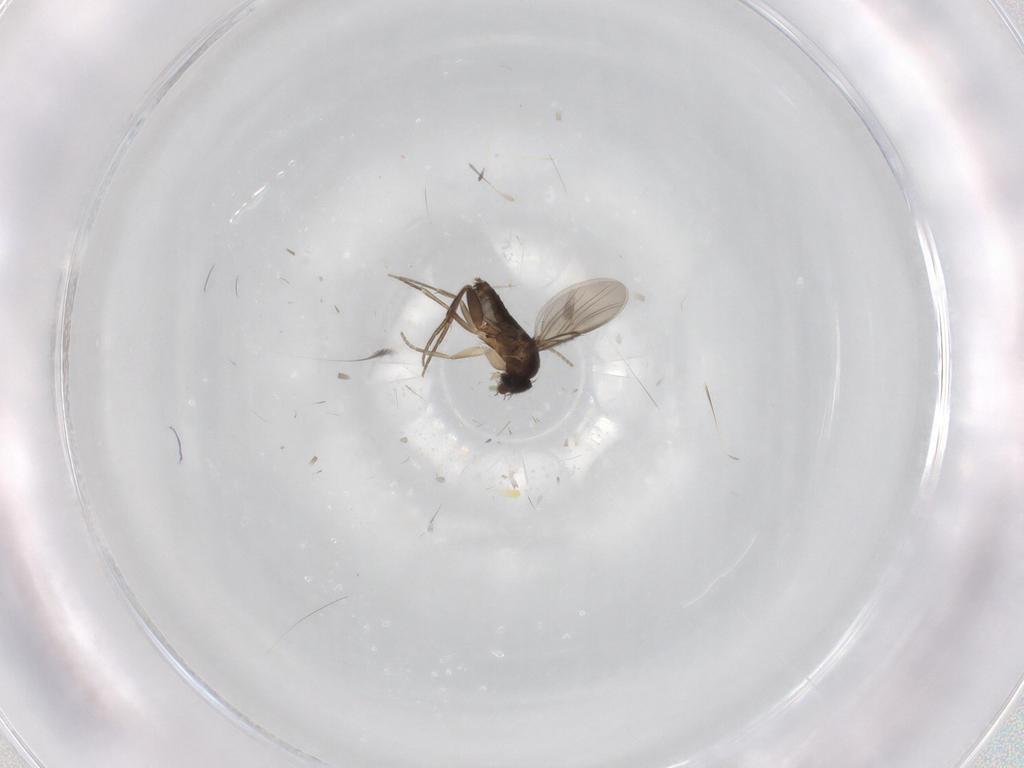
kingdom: Animalia
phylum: Arthropoda
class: Insecta
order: Diptera
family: Phoridae
